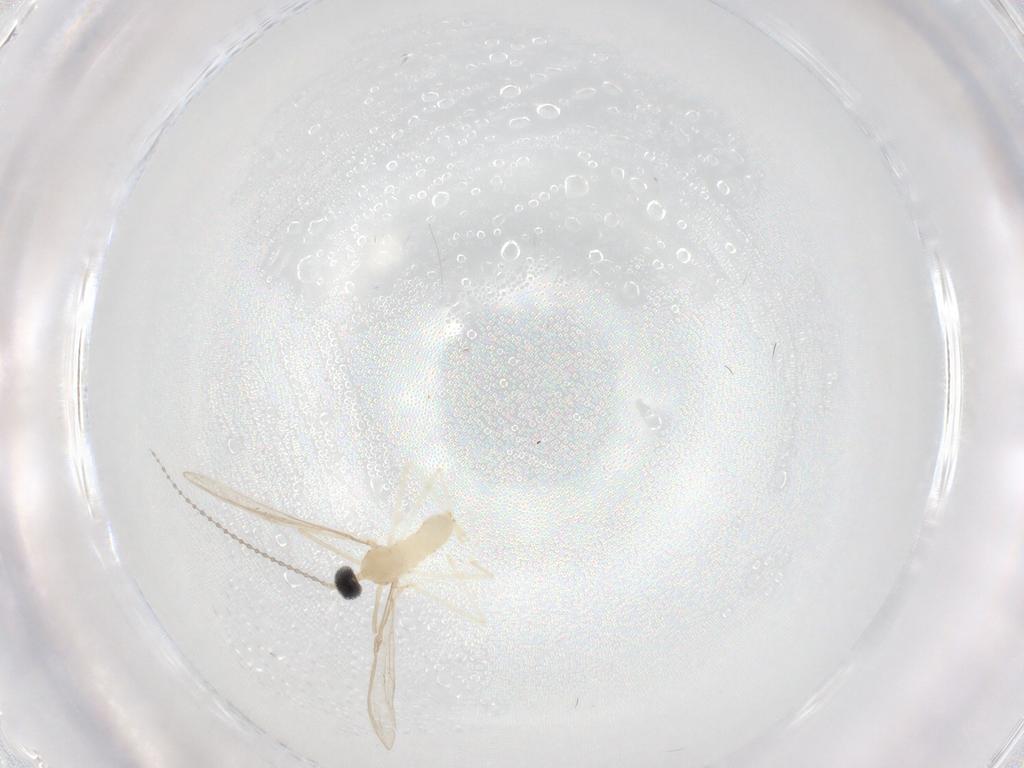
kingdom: Animalia
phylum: Arthropoda
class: Insecta
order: Diptera
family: Cecidomyiidae
